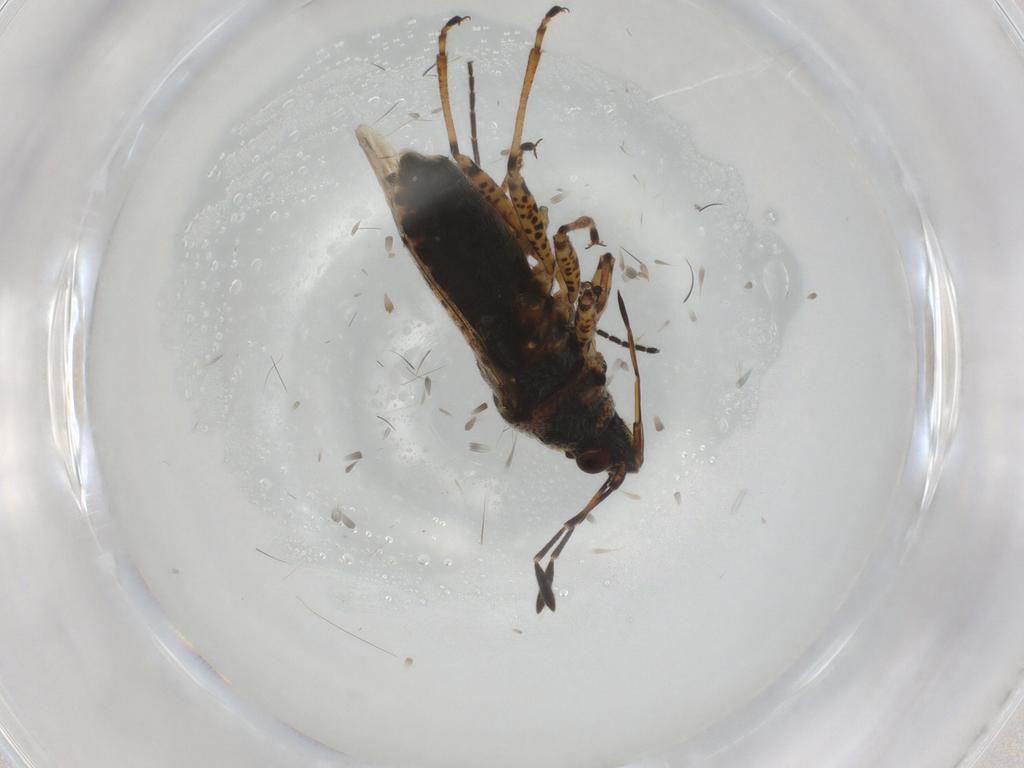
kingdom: Animalia
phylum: Arthropoda
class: Insecta
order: Hemiptera
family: Lygaeidae
